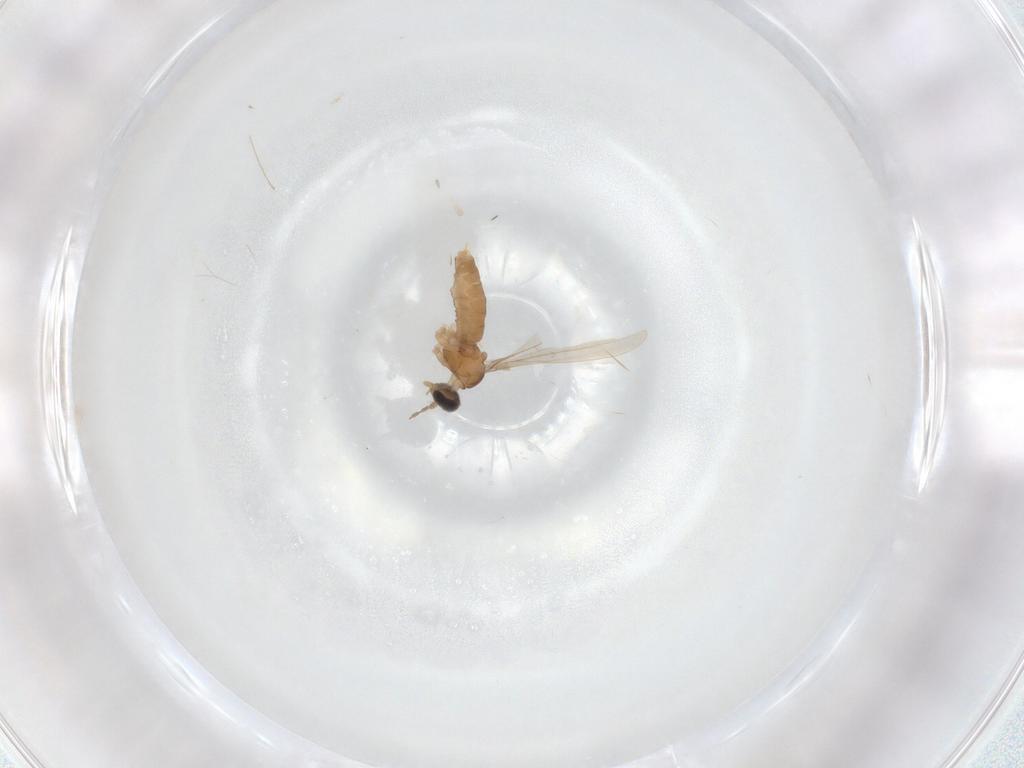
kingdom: Animalia
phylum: Arthropoda
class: Insecta
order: Diptera
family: Cecidomyiidae
